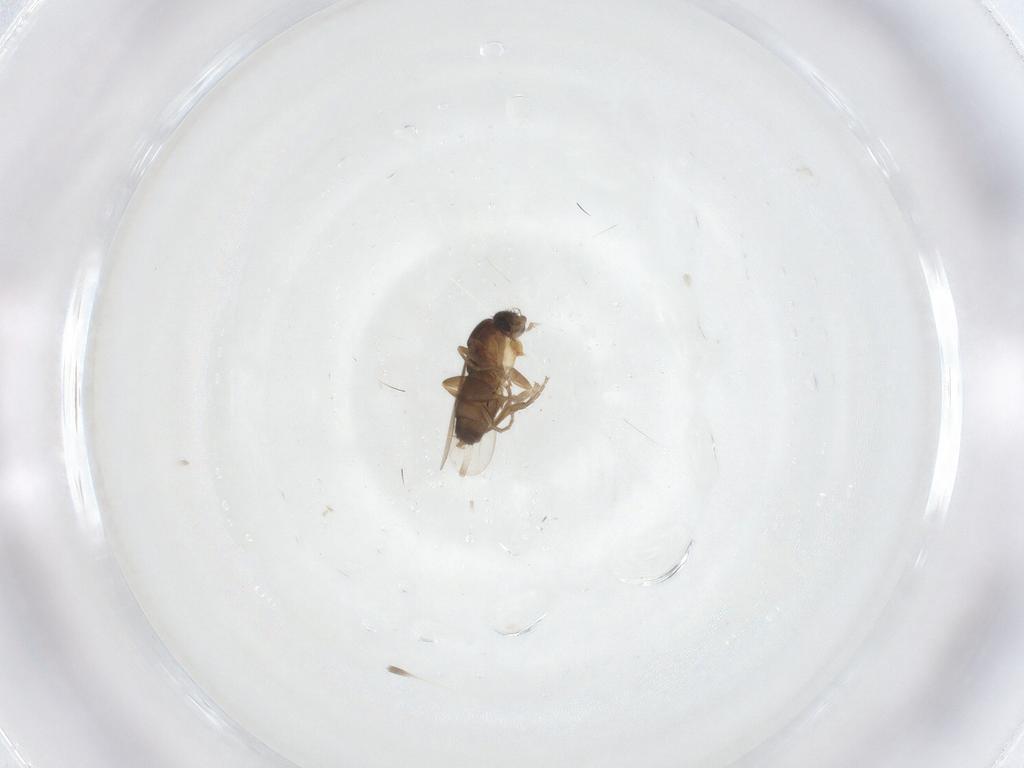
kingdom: Animalia
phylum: Arthropoda
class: Insecta
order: Diptera
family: Phoridae
